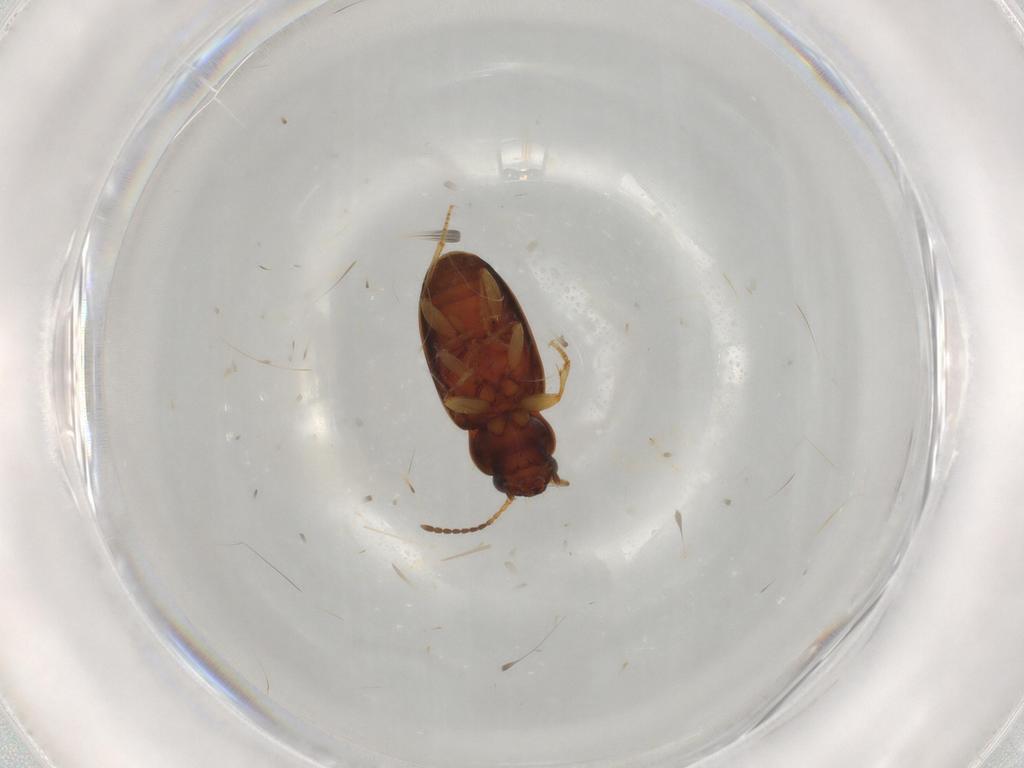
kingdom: Animalia
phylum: Arthropoda
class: Insecta
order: Coleoptera
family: Carabidae
